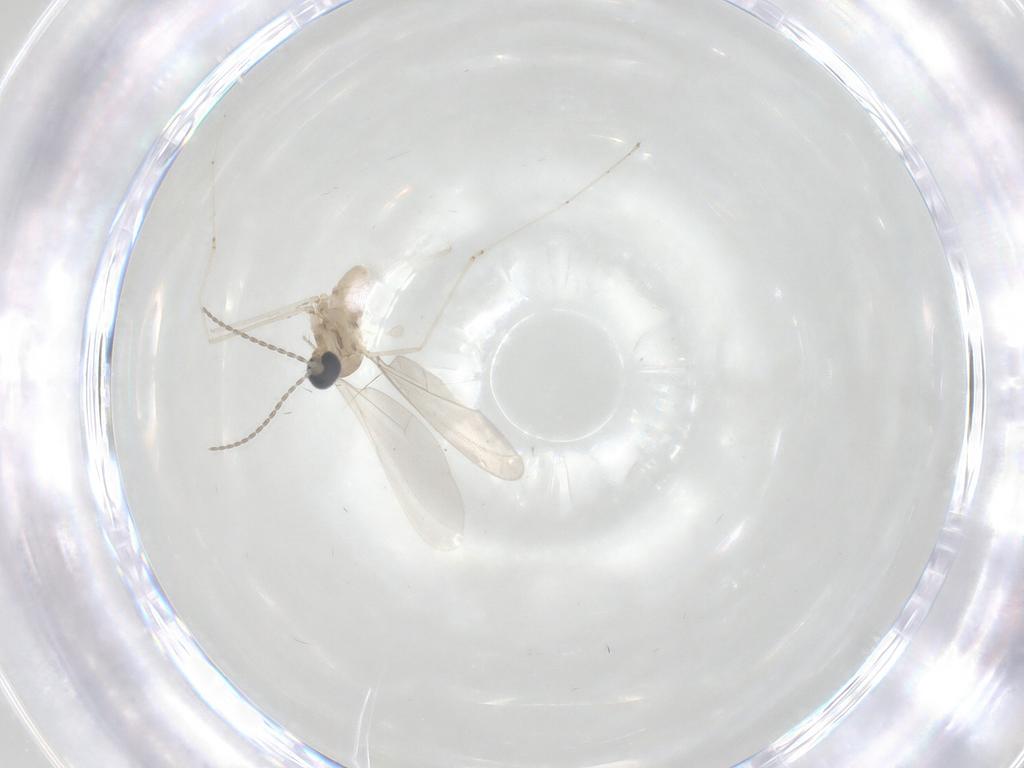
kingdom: Animalia
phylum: Arthropoda
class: Insecta
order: Diptera
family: Cecidomyiidae
